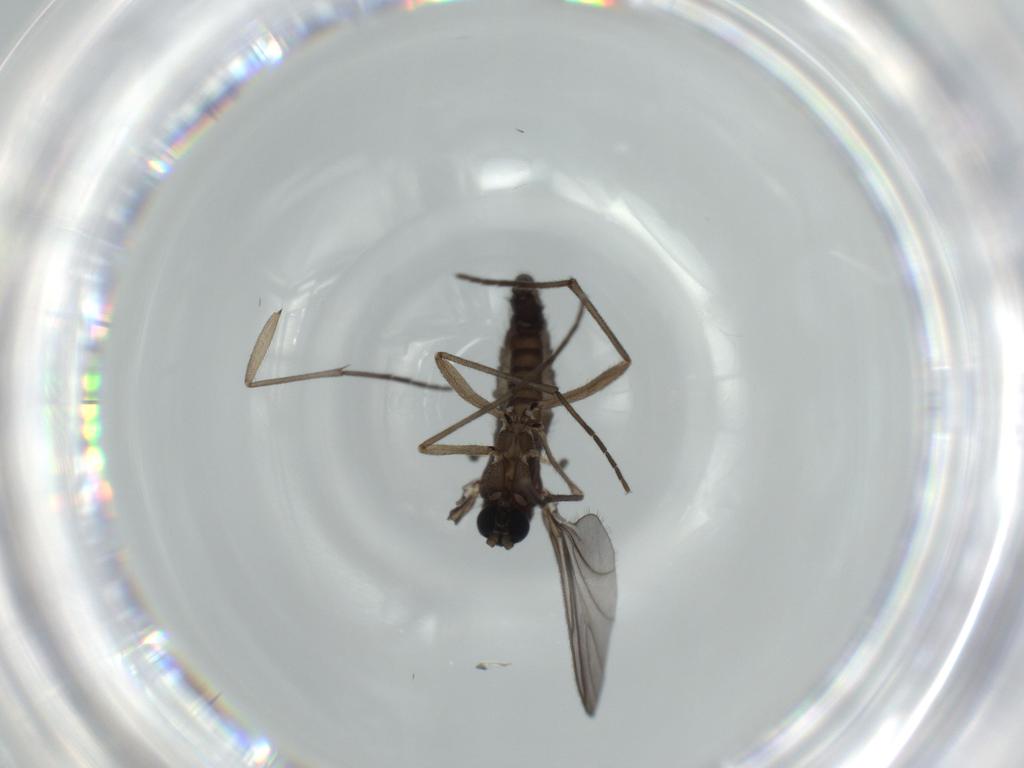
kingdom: Animalia
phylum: Arthropoda
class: Insecta
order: Diptera
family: Sciaridae
